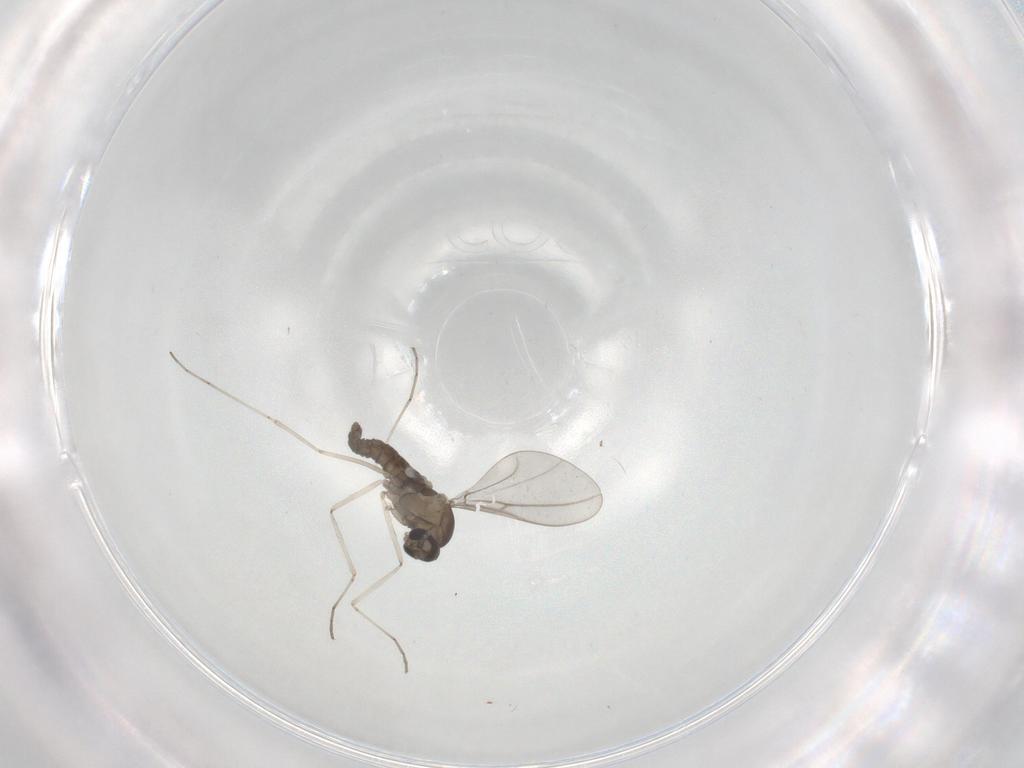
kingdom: Animalia
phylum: Arthropoda
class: Insecta
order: Diptera
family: Cecidomyiidae
